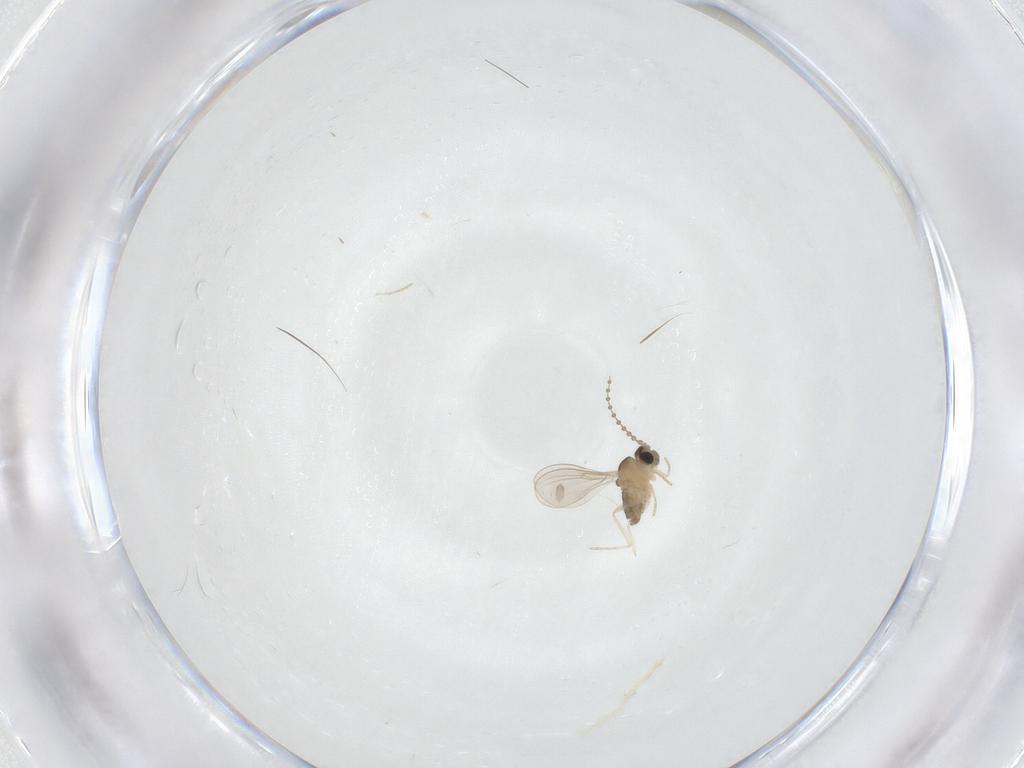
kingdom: Animalia
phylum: Arthropoda
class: Insecta
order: Diptera
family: Cecidomyiidae
